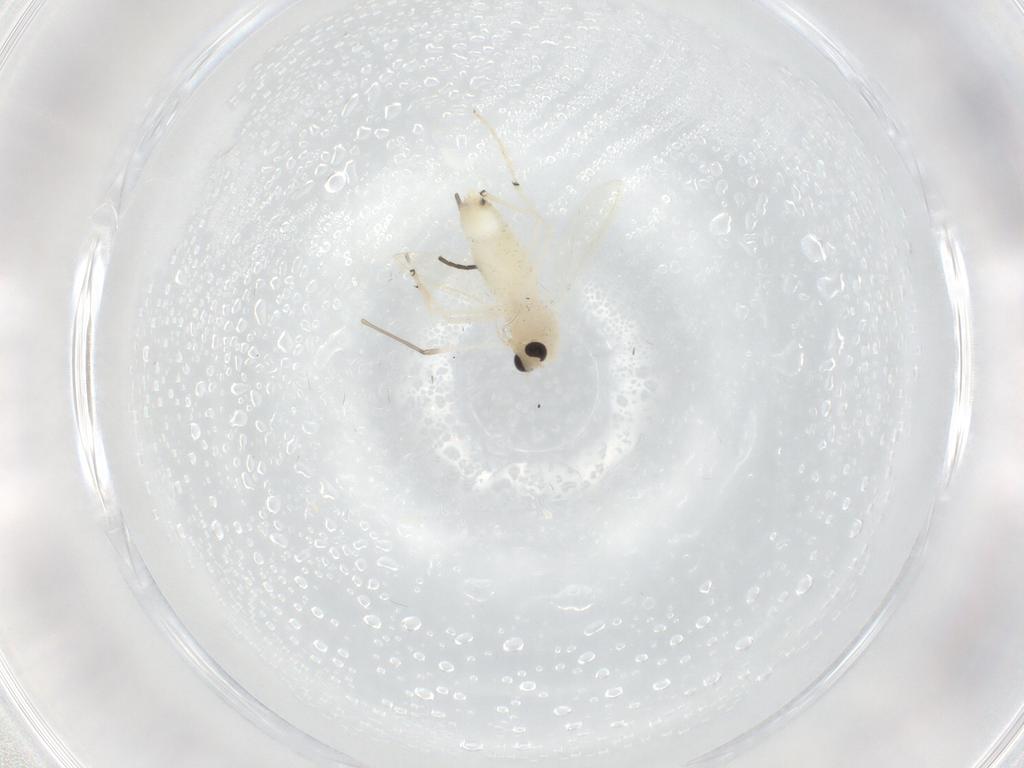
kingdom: Animalia
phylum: Arthropoda
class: Insecta
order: Diptera
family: Chironomidae
